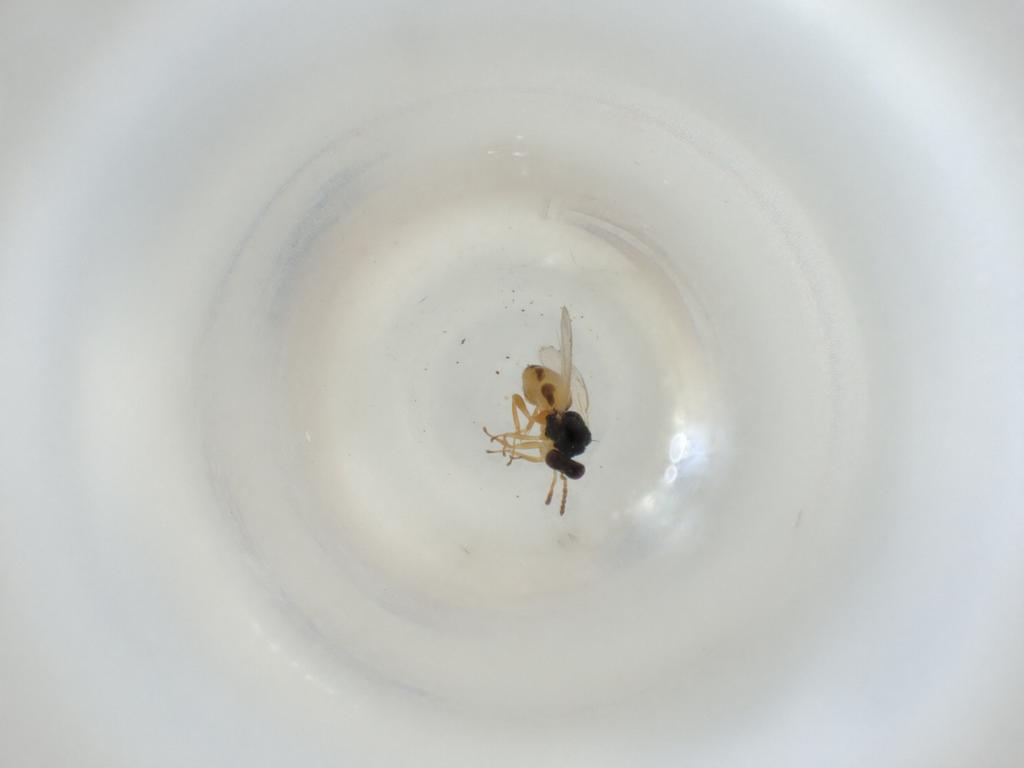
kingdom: Animalia
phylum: Arthropoda
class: Insecta
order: Hymenoptera
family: Eulophidae
